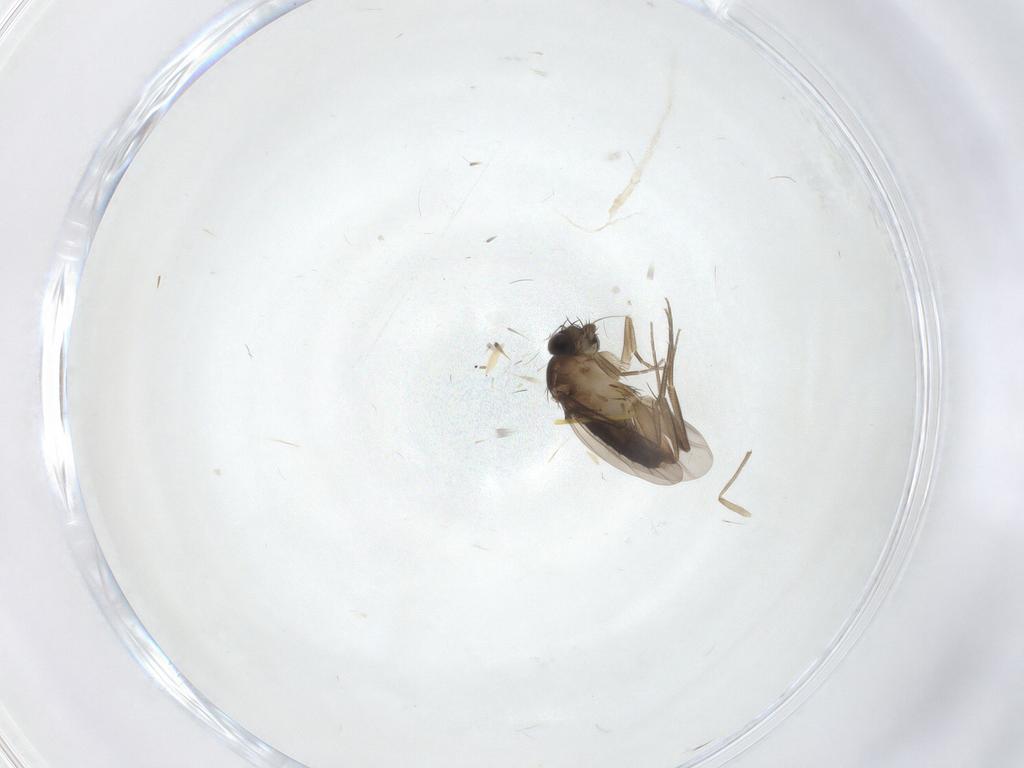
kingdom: Animalia
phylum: Arthropoda
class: Insecta
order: Diptera
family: Phoridae
